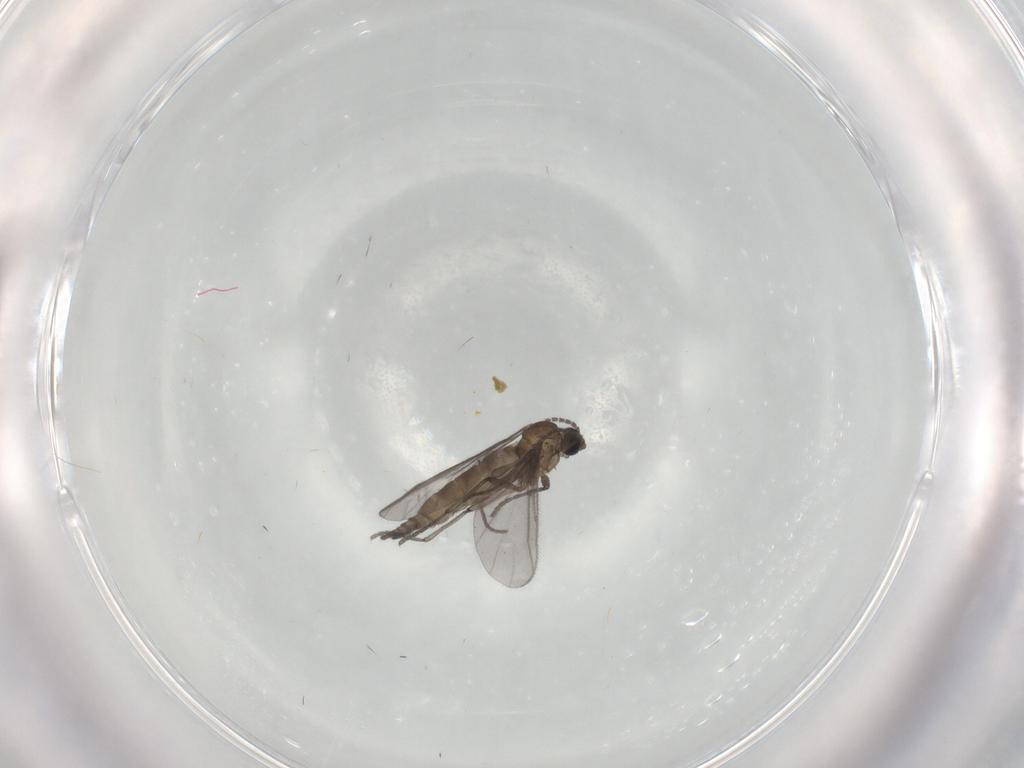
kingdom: Animalia
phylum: Arthropoda
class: Insecta
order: Diptera
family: Sciaridae
